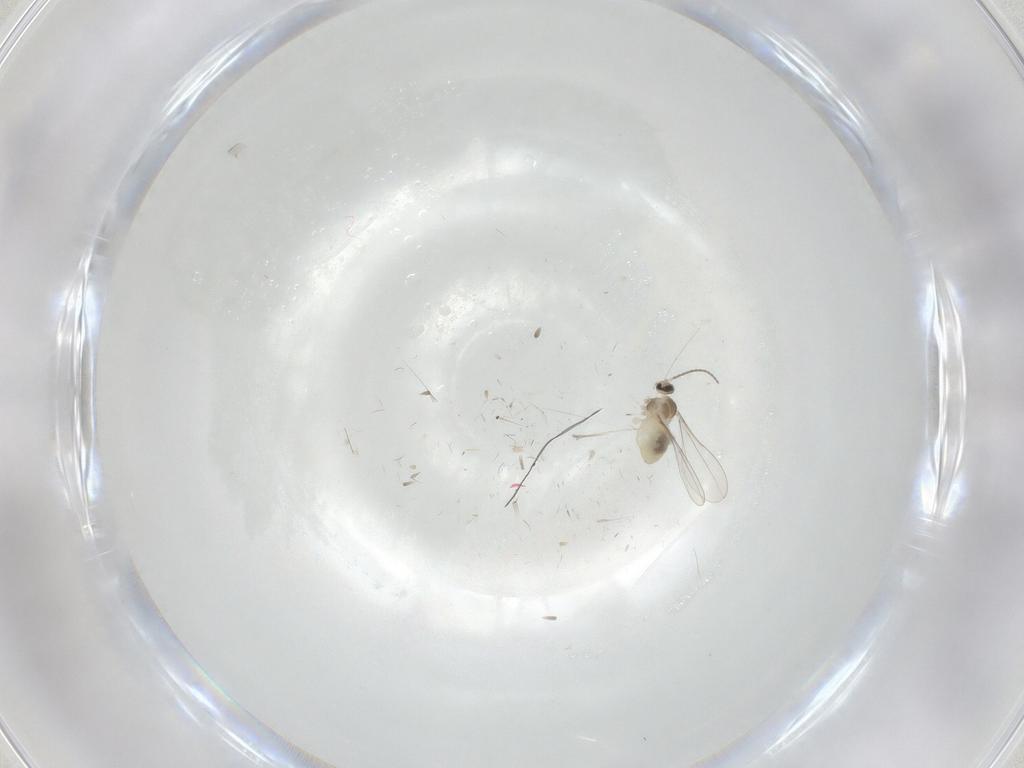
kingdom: Animalia
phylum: Arthropoda
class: Insecta
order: Diptera
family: Cecidomyiidae
